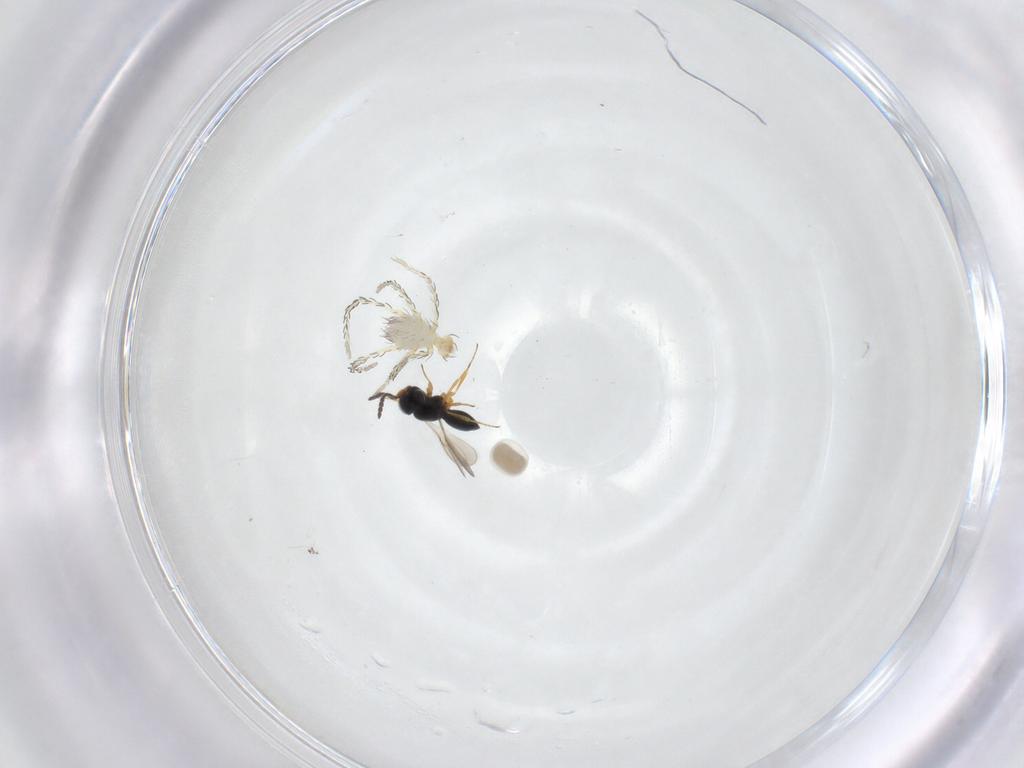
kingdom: Animalia
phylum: Arthropoda
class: Insecta
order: Hymenoptera
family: Scelionidae
